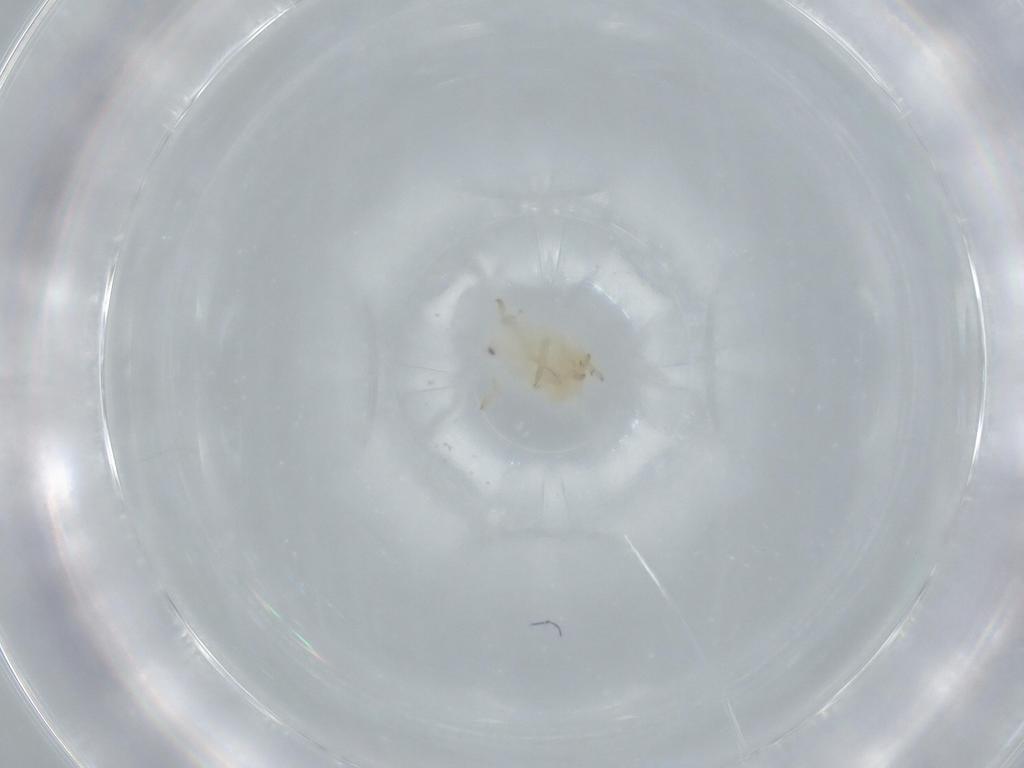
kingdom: Animalia
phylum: Arthropoda
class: Insecta
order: Hemiptera
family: Flatidae
